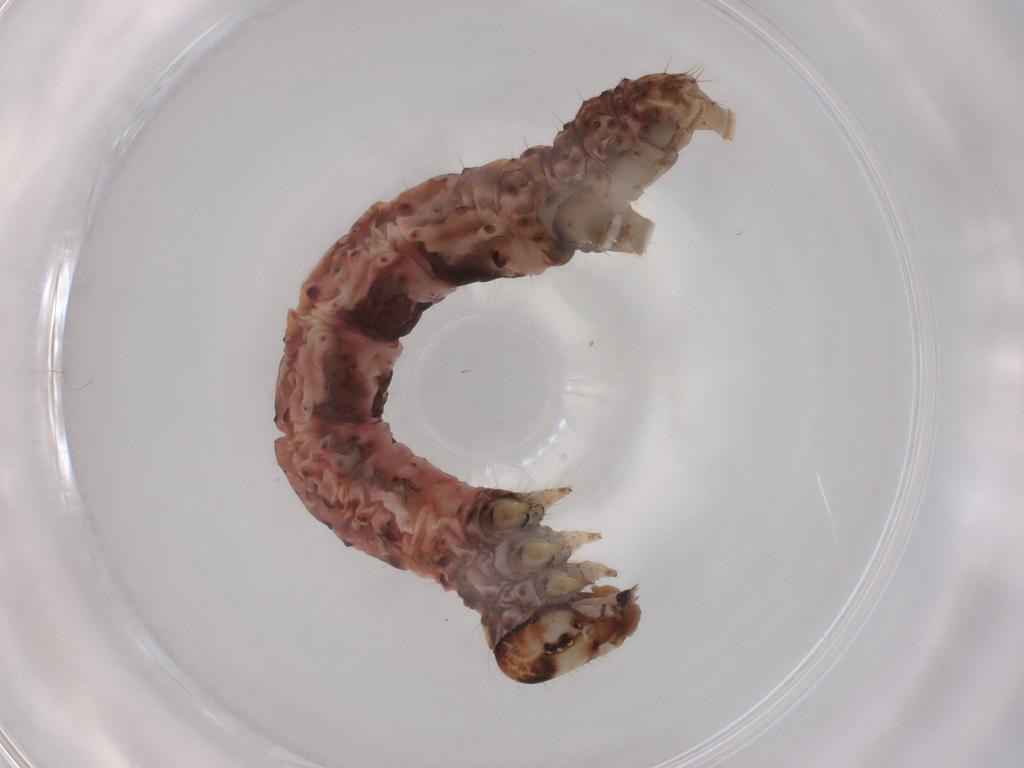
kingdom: Animalia
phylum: Arthropoda
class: Insecta
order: Lepidoptera
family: Geometridae
